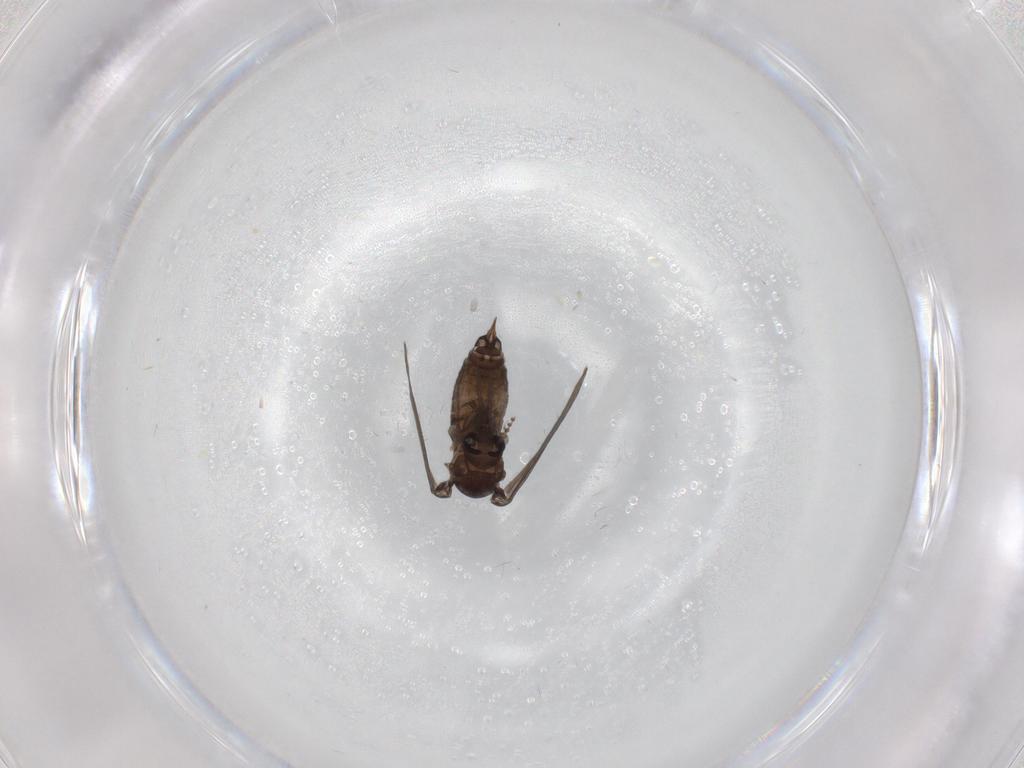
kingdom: Animalia
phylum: Arthropoda
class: Insecta
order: Diptera
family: Psychodidae
